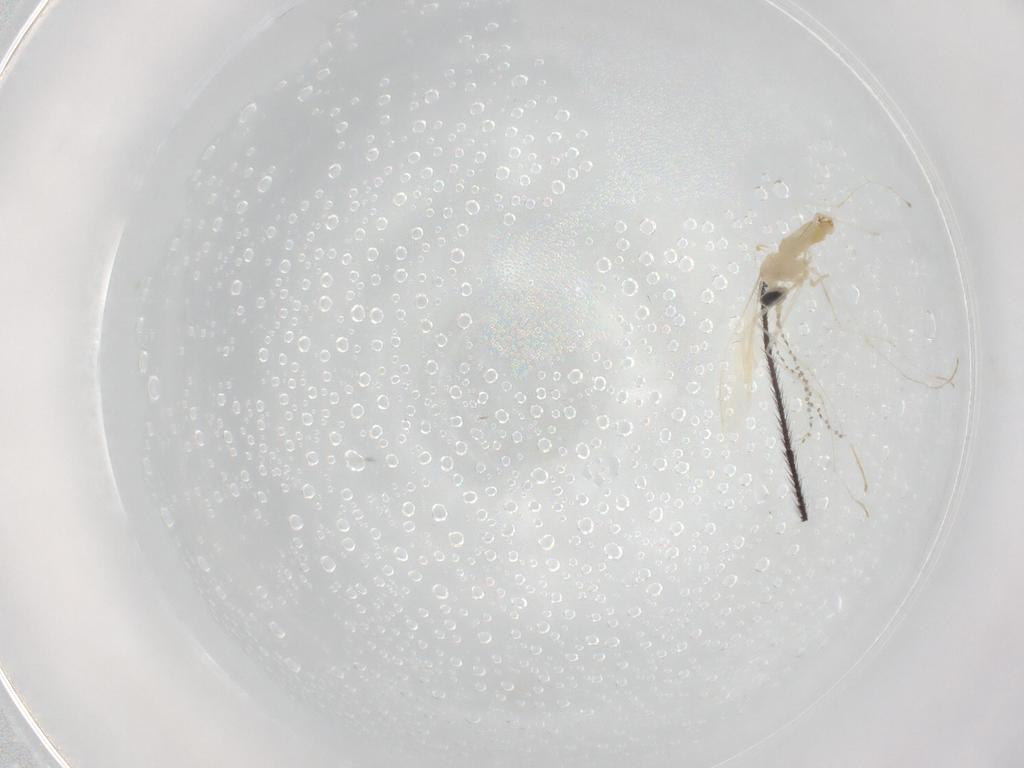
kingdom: Animalia
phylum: Arthropoda
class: Insecta
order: Diptera
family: Cecidomyiidae
